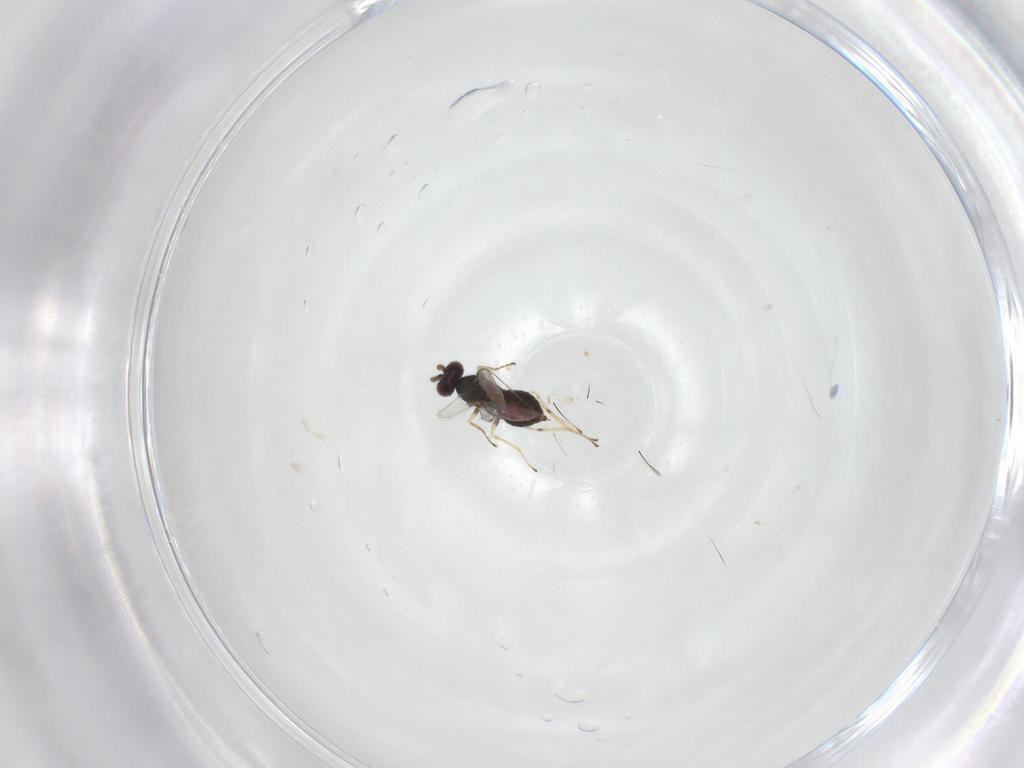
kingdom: Animalia
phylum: Arthropoda
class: Insecta
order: Hymenoptera
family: Eulophidae
